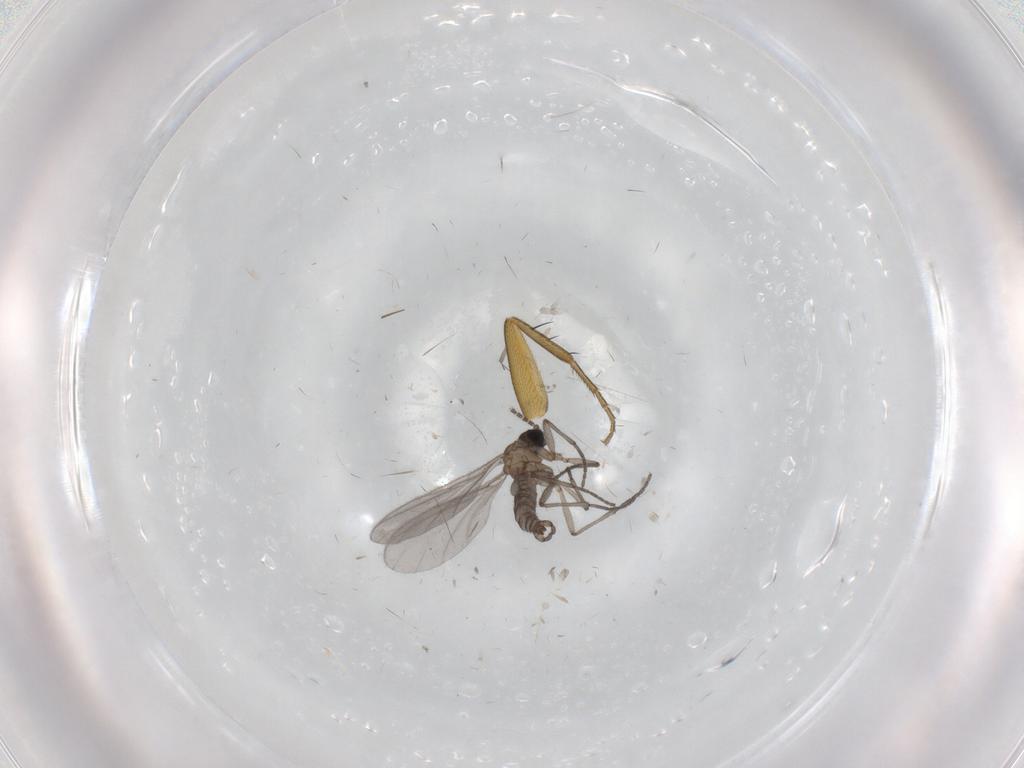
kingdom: Animalia
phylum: Arthropoda
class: Insecta
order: Diptera
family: Sciaridae
